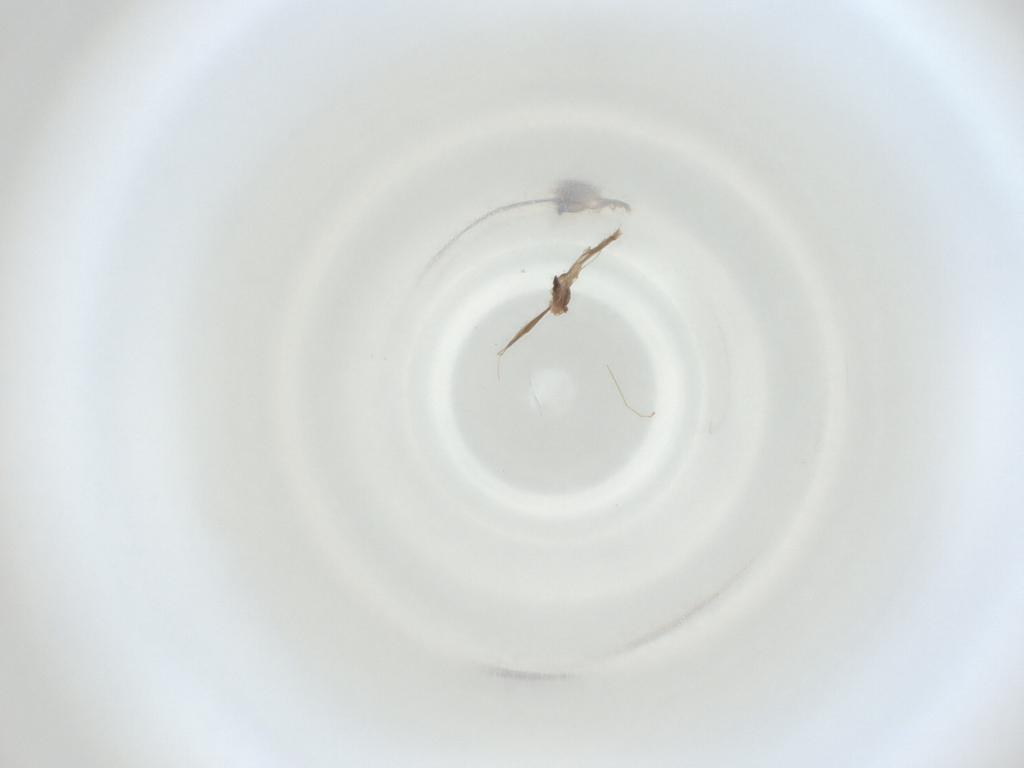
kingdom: Animalia
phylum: Arthropoda
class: Insecta
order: Diptera
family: Cecidomyiidae
